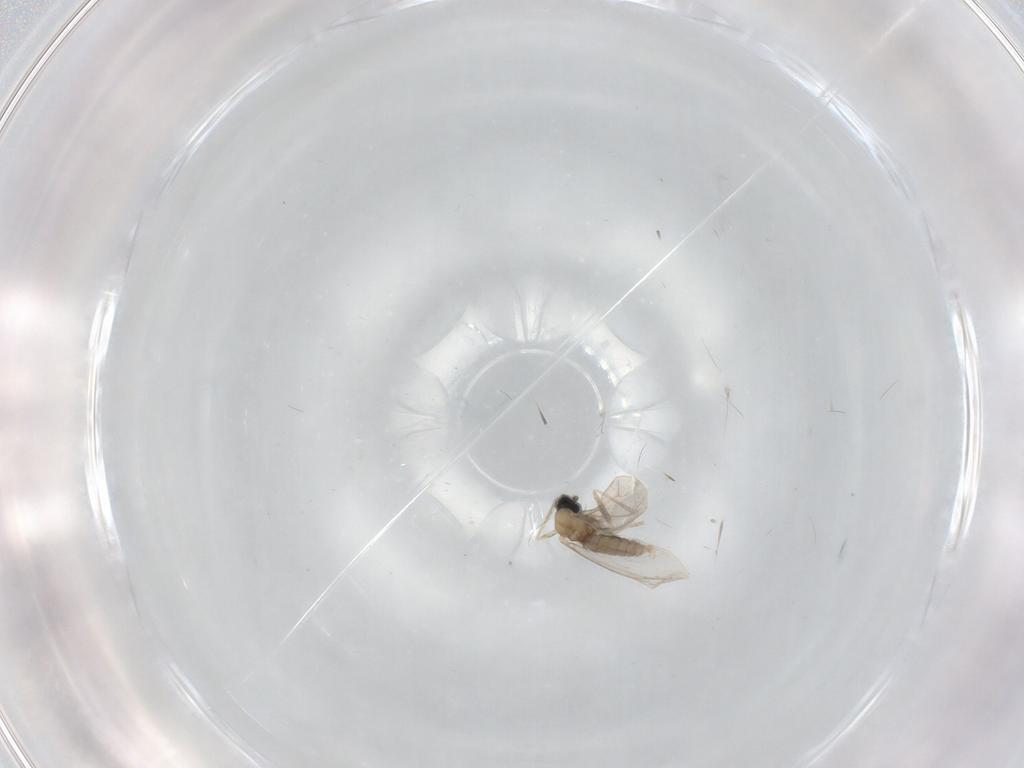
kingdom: Animalia
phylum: Arthropoda
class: Insecta
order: Diptera
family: Cecidomyiidae
